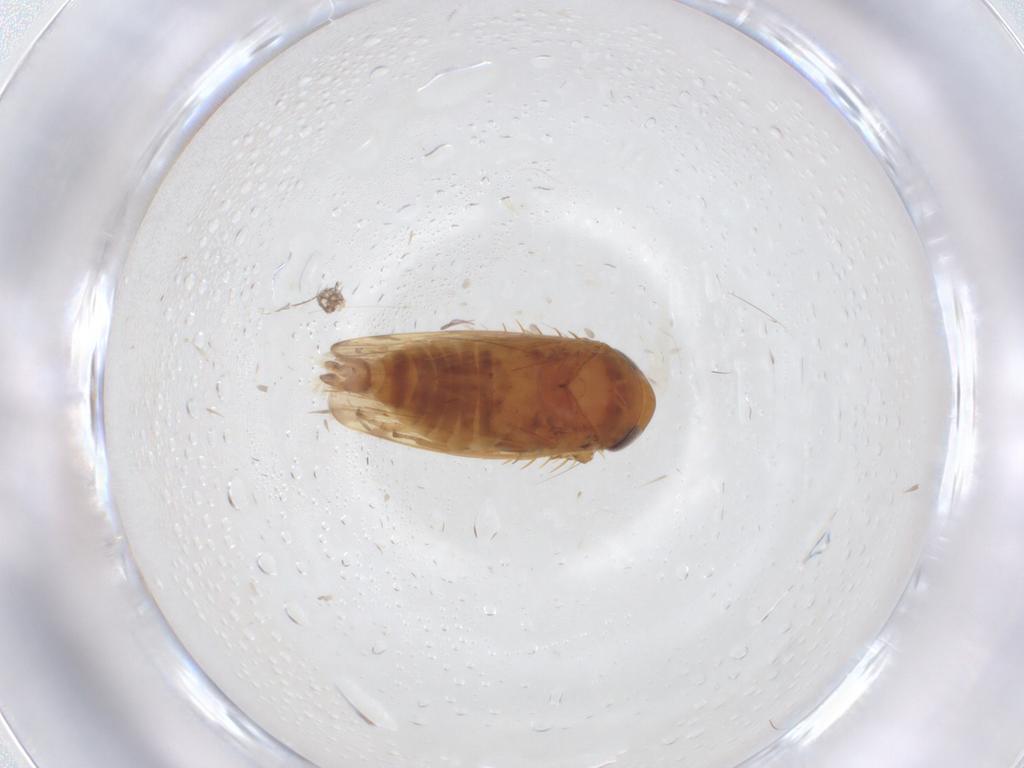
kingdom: Animalia
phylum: Arthropoda
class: Insecta
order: Hemiptera
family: Cicadellidae
